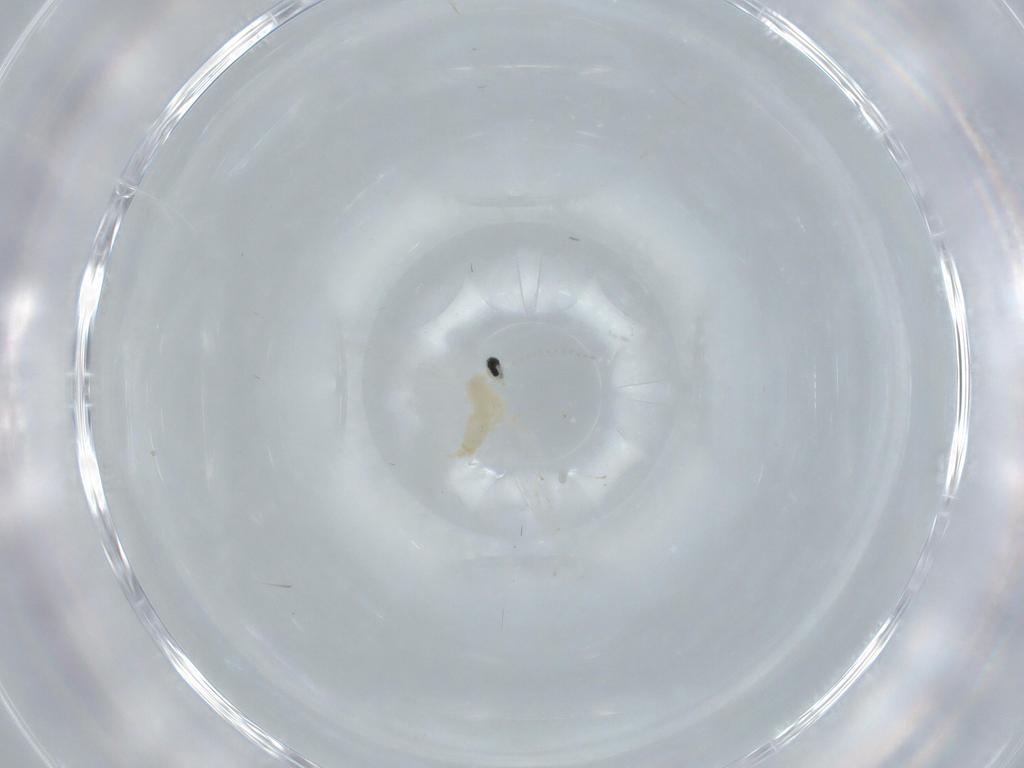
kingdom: Animalia
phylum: Arthropoda
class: Insecta
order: Diptera
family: Cecidomyiidae
